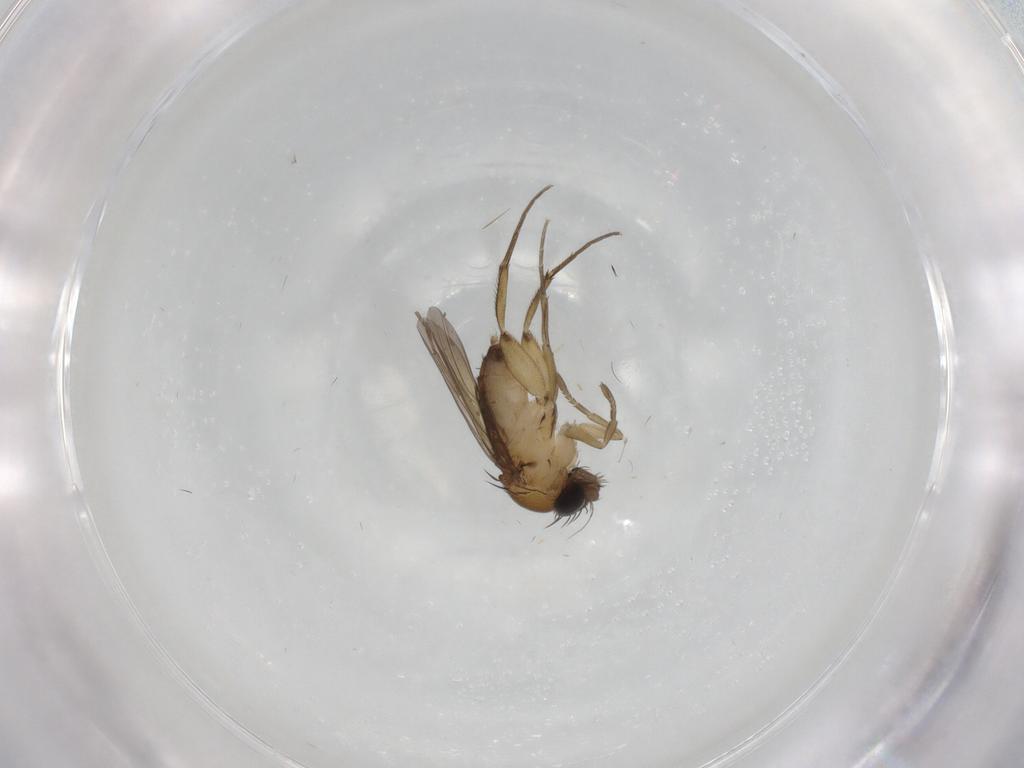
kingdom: Animalia
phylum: Arthropoda
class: Insecta
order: Diptera
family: Phoridae
